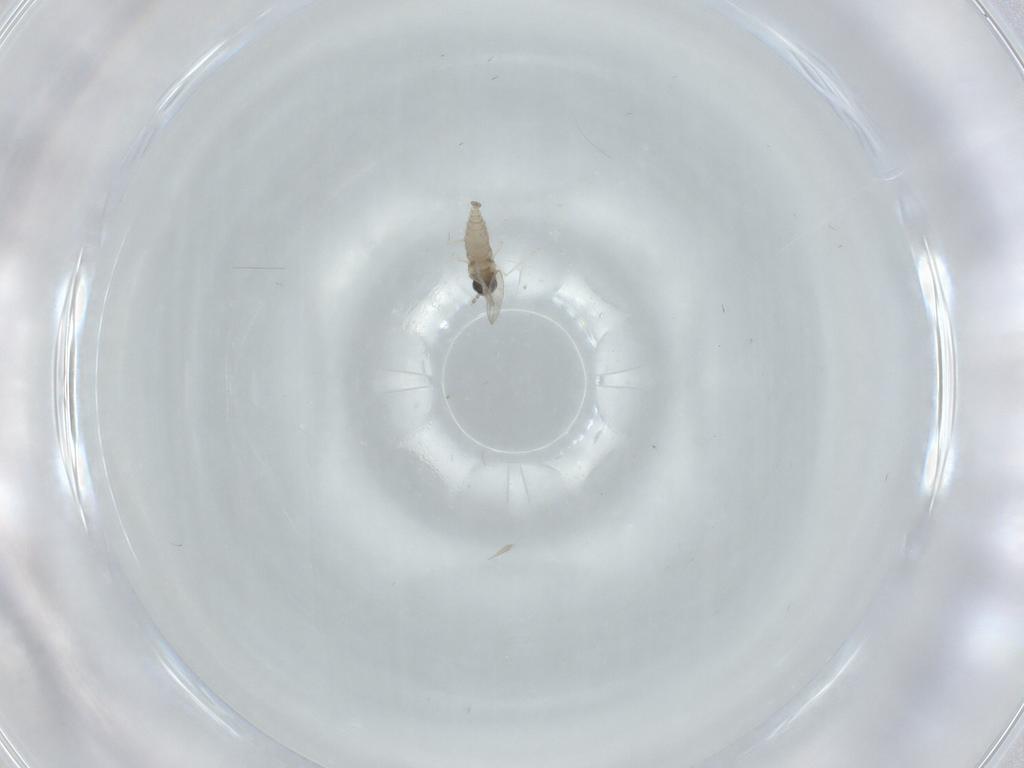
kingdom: Animalia
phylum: Arthropoda
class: Insecta
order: Diptera
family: Cecidomyiidae
